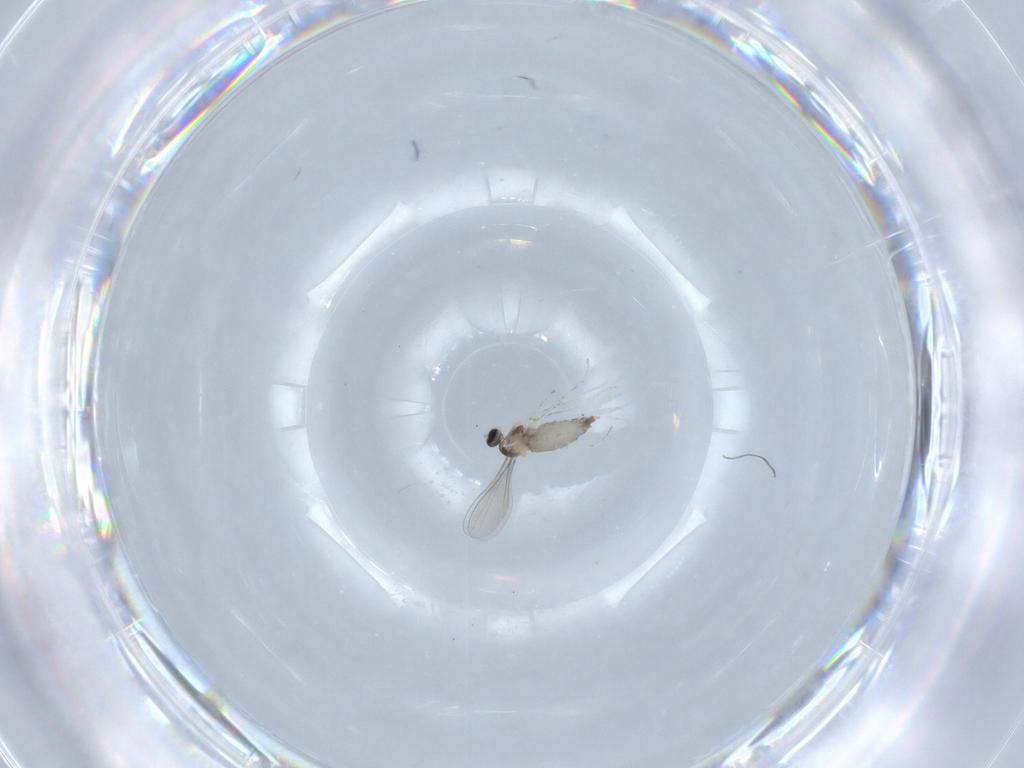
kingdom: Animalia
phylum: Arthropoda
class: Insecta
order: Diptera
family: Cecidomyiidae
